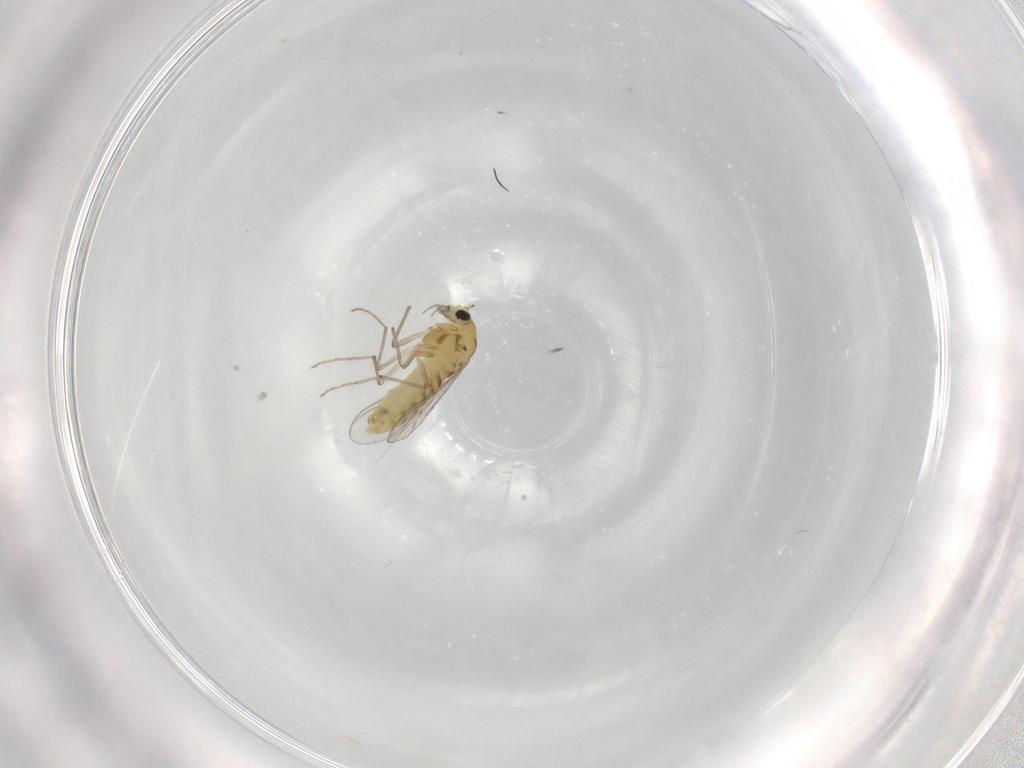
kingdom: Animalia
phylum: Arthropoda
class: Insecta
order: Diptera
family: Chironomidae
